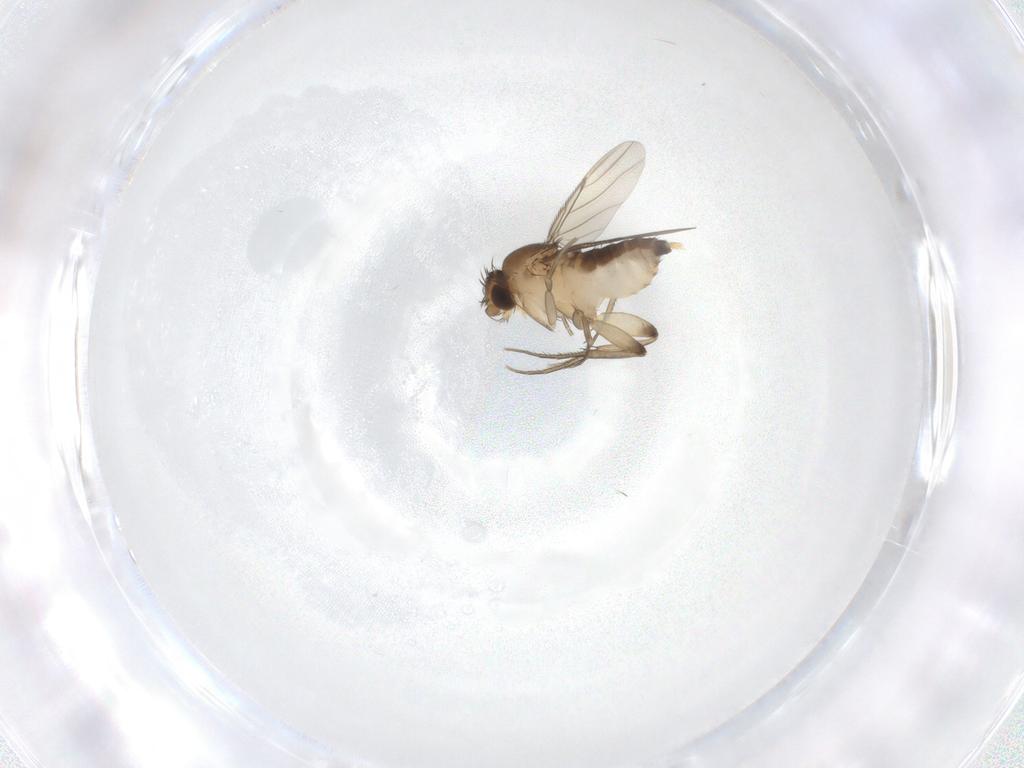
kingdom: Animalia
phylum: Arthropoda
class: Insecta
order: Diptera
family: Phoridae
